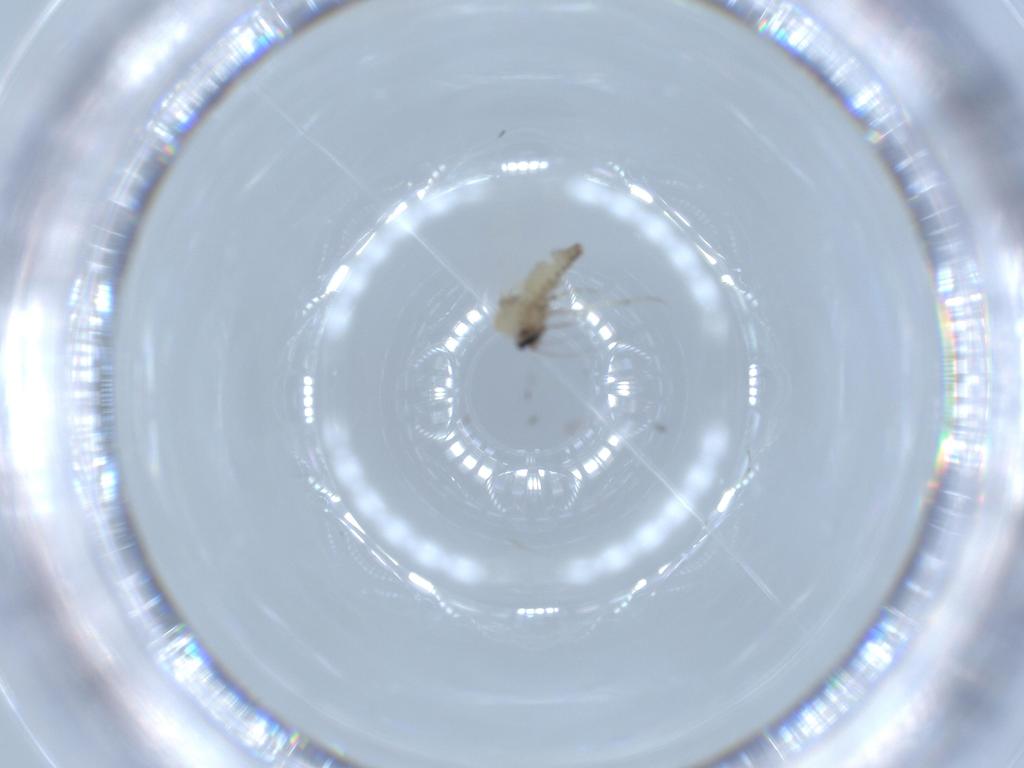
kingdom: Animalia
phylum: Arthropoda
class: Insecta
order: Diptera
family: Ceratopogonidae
